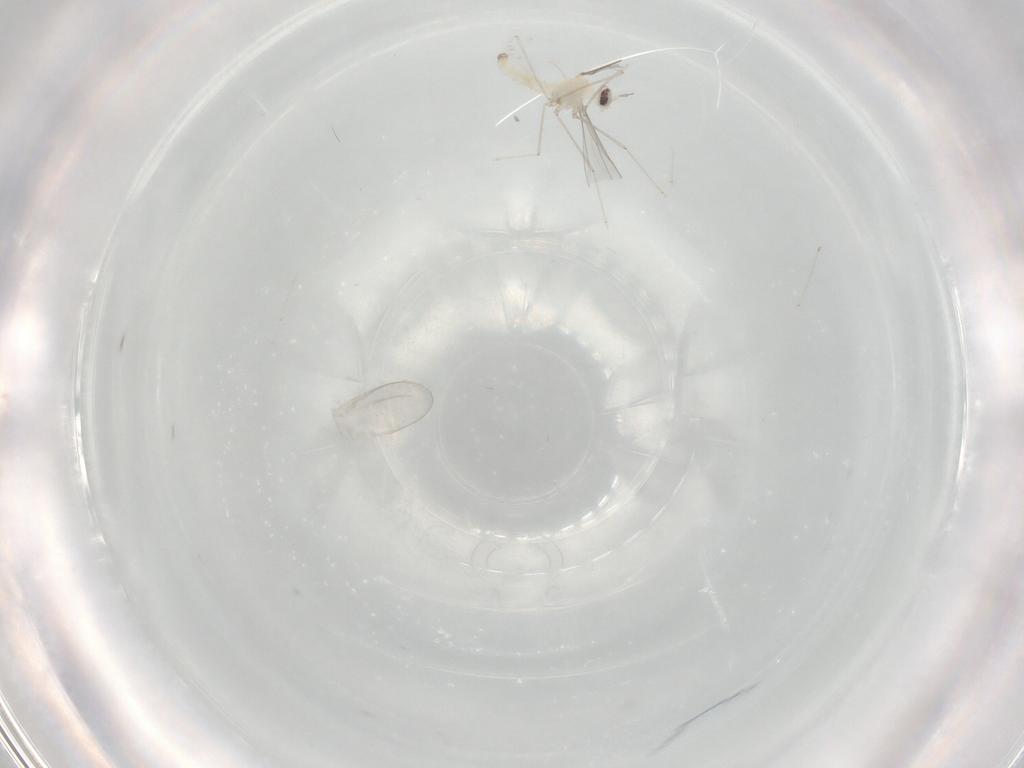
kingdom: Animalia
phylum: Arthropoda
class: Insecta
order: Diptera
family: Cecidomyiidae
